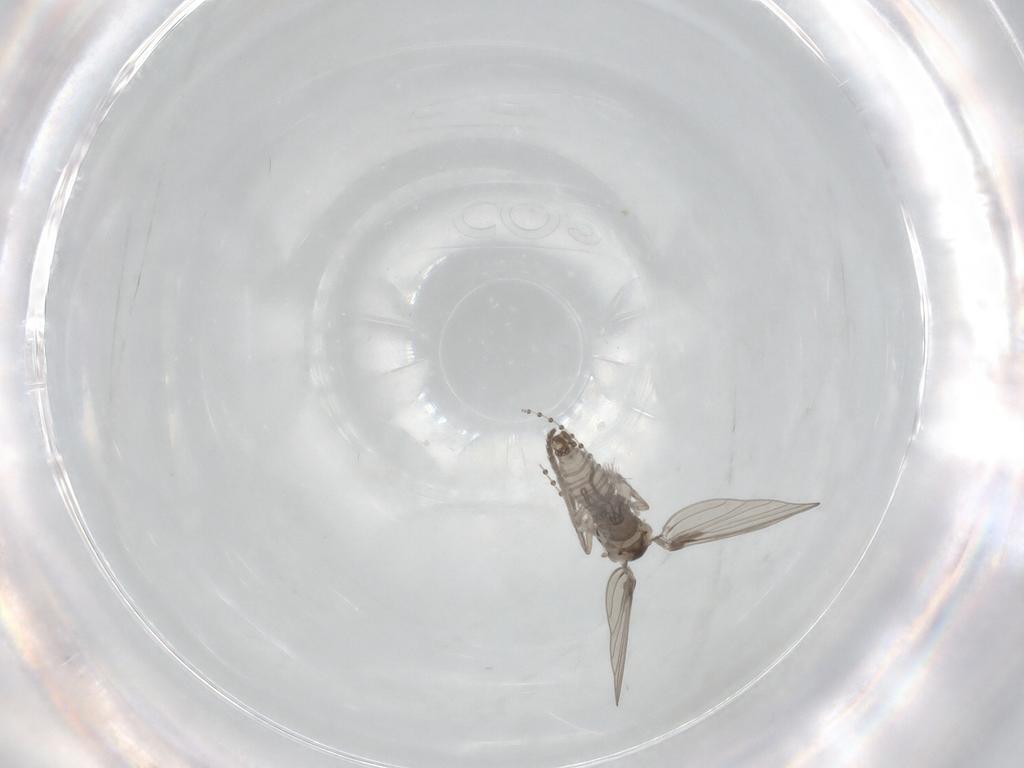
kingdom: Animalia
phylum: Arthropoda
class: Insecta
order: Diptera
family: Psychodidae
